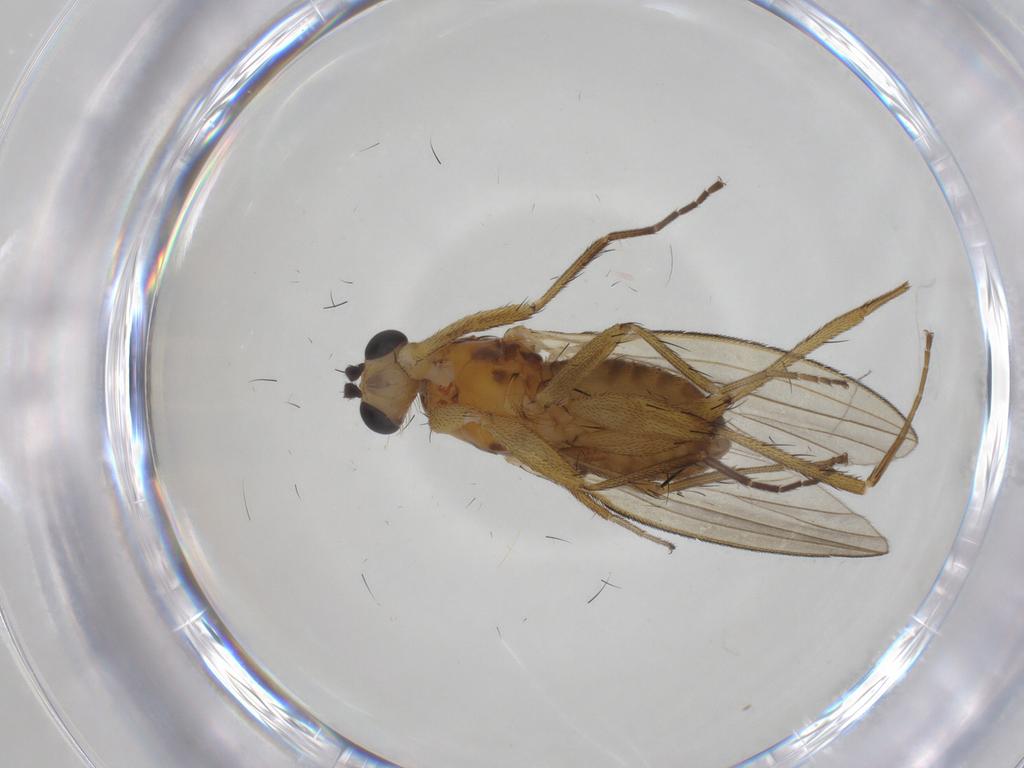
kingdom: Animalia
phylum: Arthropoda
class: Insecta
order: Diptera
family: Lonchopteridae
